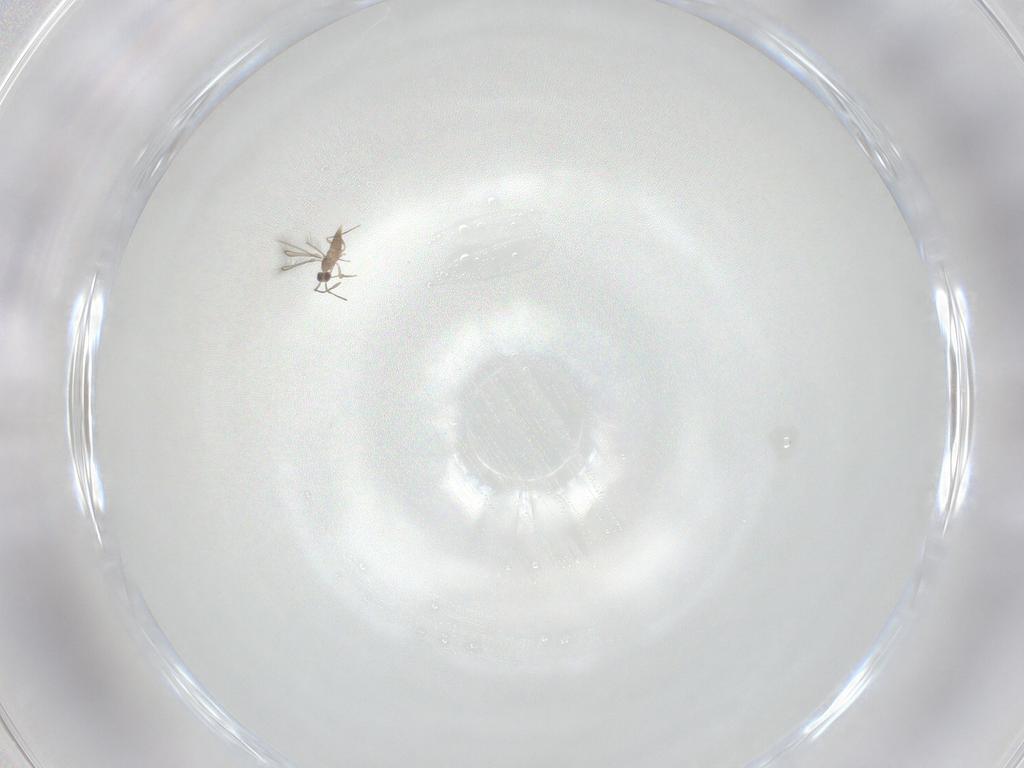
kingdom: Animalia
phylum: Arthropoda
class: Insecta
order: Hymenoptera
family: Mymaridae
